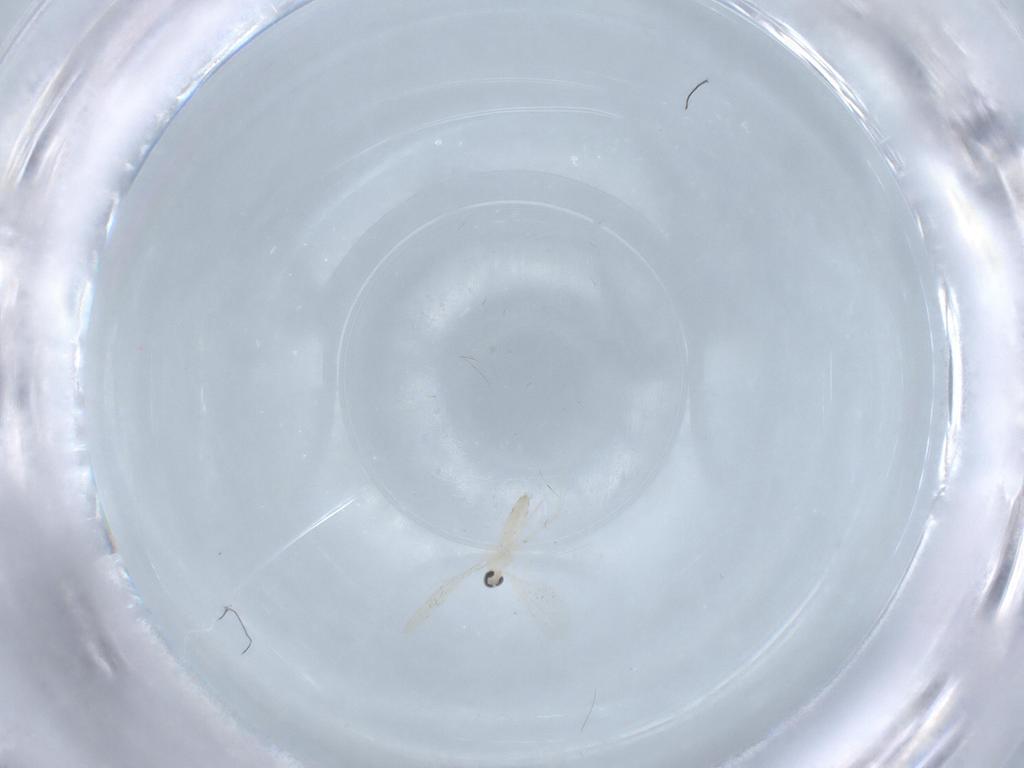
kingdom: Animalia
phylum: Arthropoda
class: Insecta
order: Diptera
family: Cecidomyiidae
